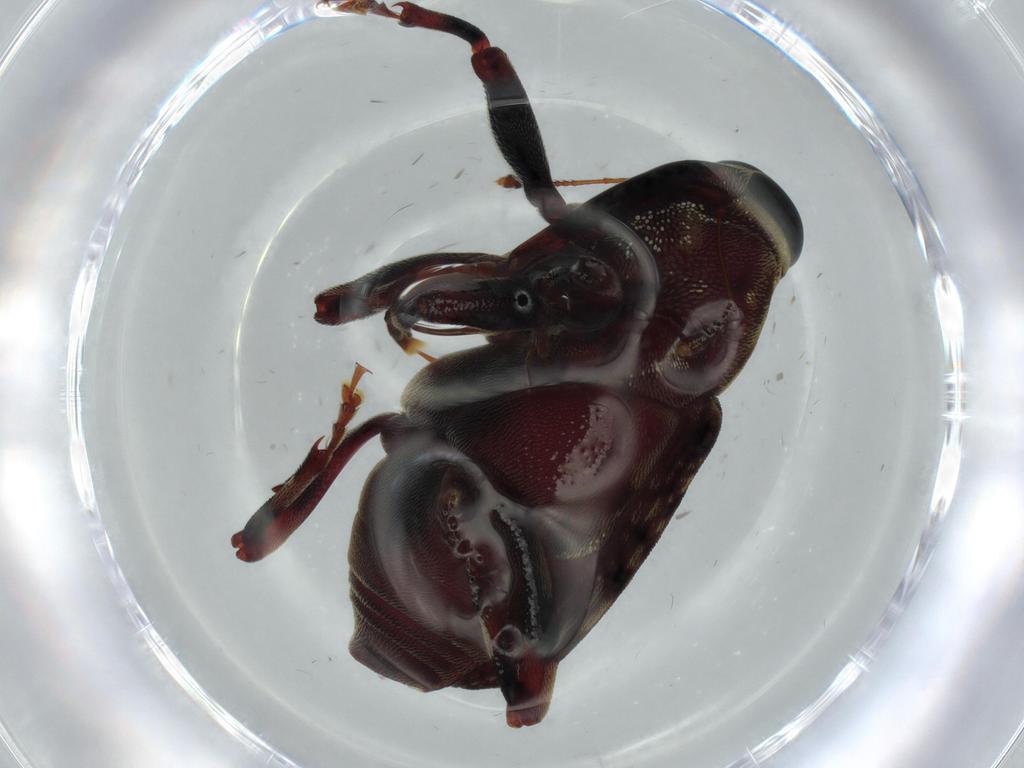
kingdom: Animalia
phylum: Arthropoda
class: Insecta
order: Coleoptera
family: Curculionidae
